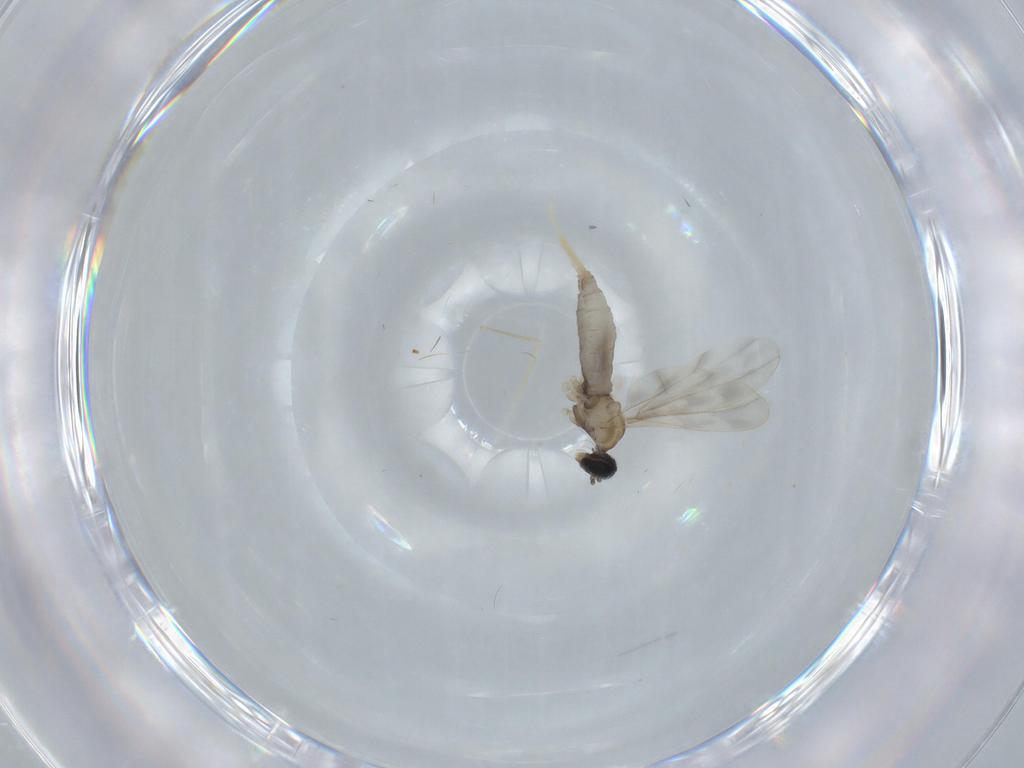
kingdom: Animalia
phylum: Arthropoda
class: Insecta
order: Diptera
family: Cecidomyiidae
